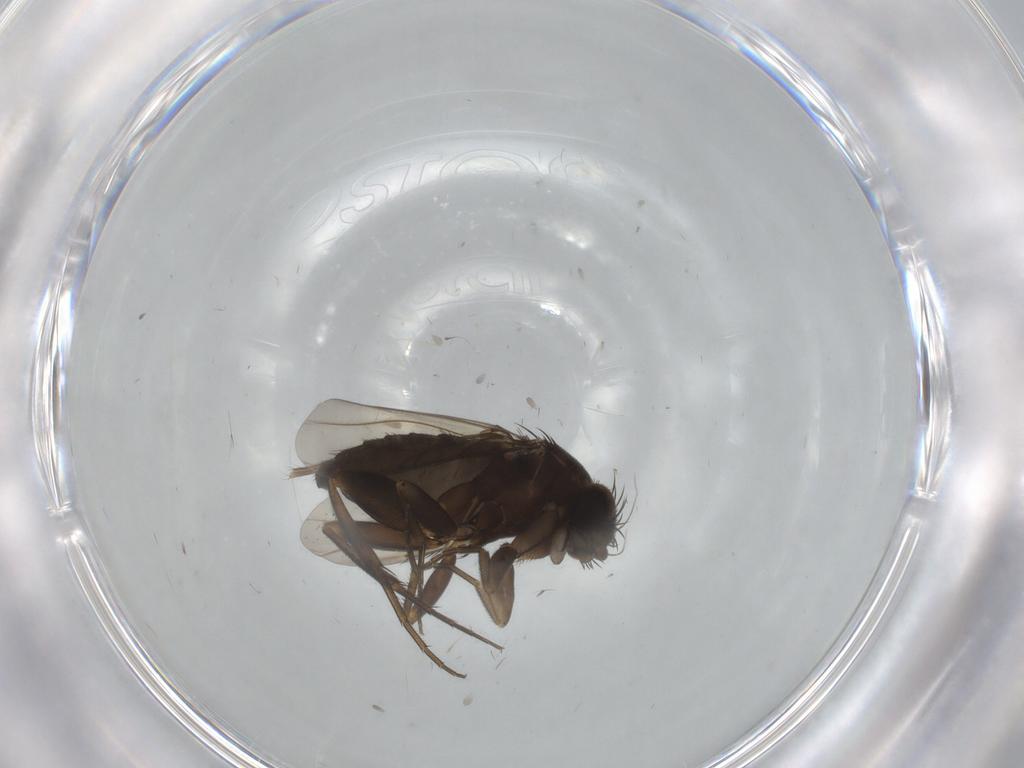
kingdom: Animalia
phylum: Arthropoda
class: Insecta
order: Diptera
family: Phoridae
